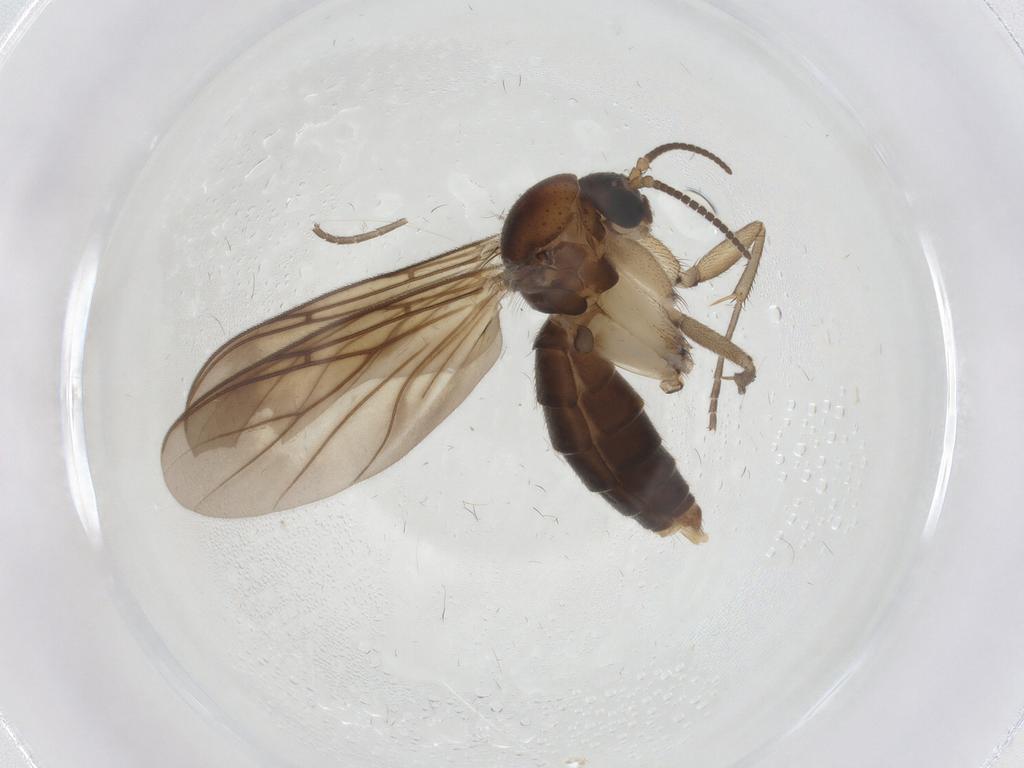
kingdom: Animalia
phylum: Arthropoda
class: Insecta
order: Diptera
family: Mycetophilidae
